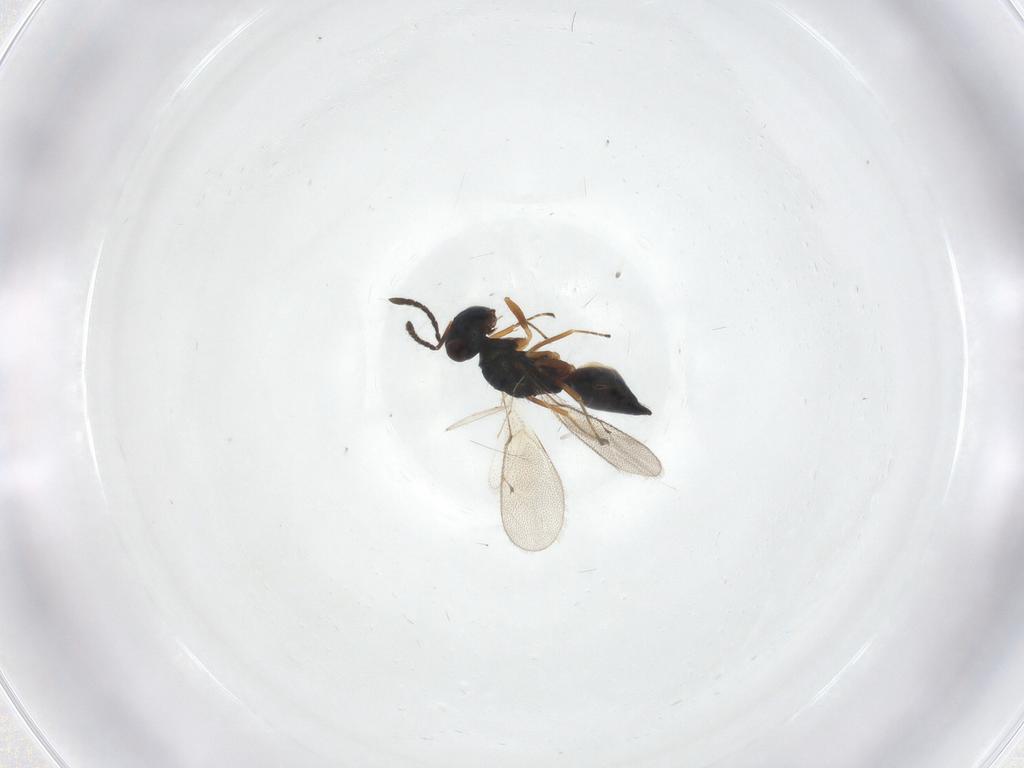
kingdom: Animalia
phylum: Arthropoda
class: Insecta
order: Hymenoptera
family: Pteromalidae
